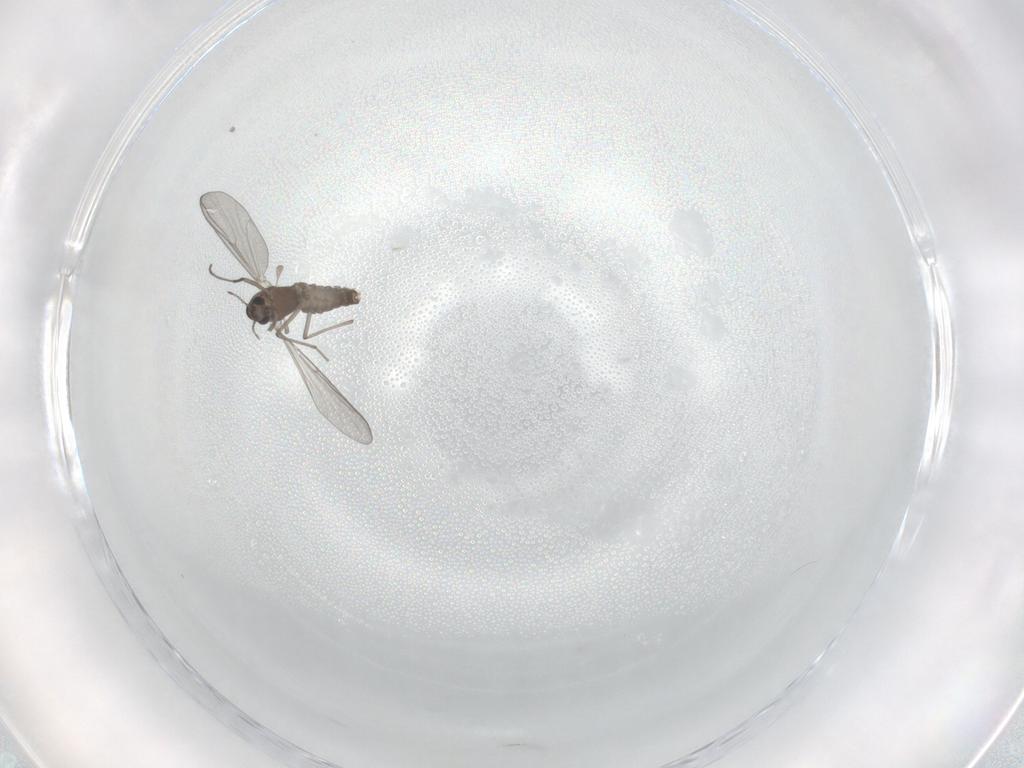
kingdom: Animalia
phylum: Arthropoda
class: Insecta
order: Diptera
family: Chironomidae
